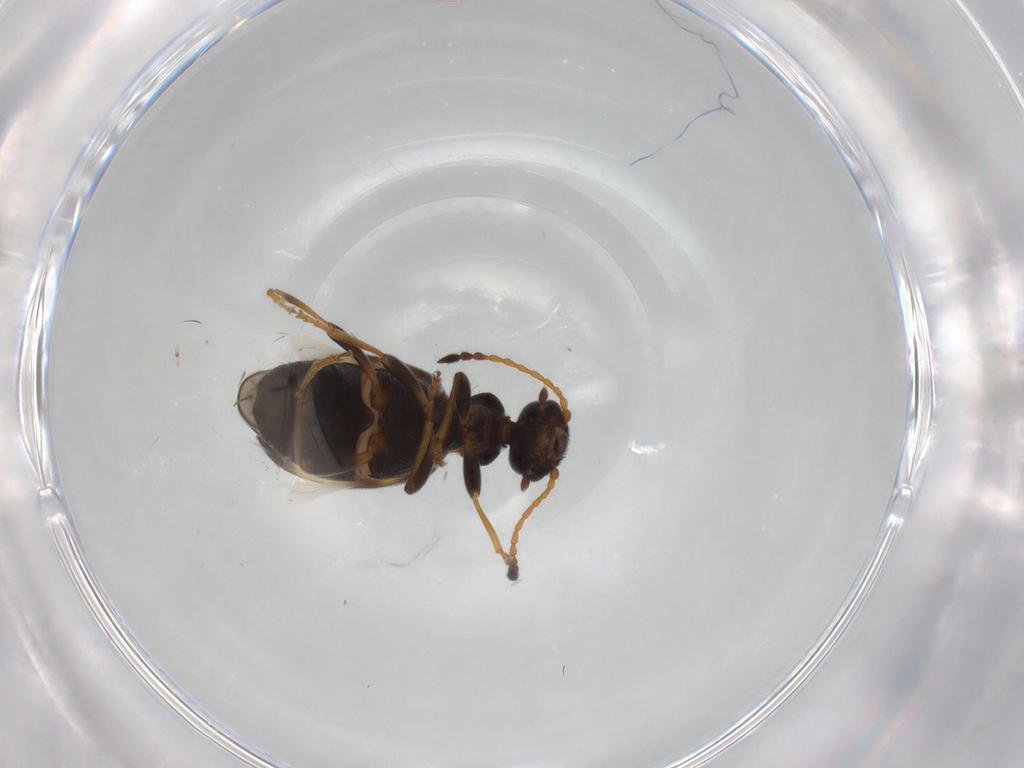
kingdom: Animalia
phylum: Arthropoda
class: Insecta
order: Coleoptera
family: Anthicidae
